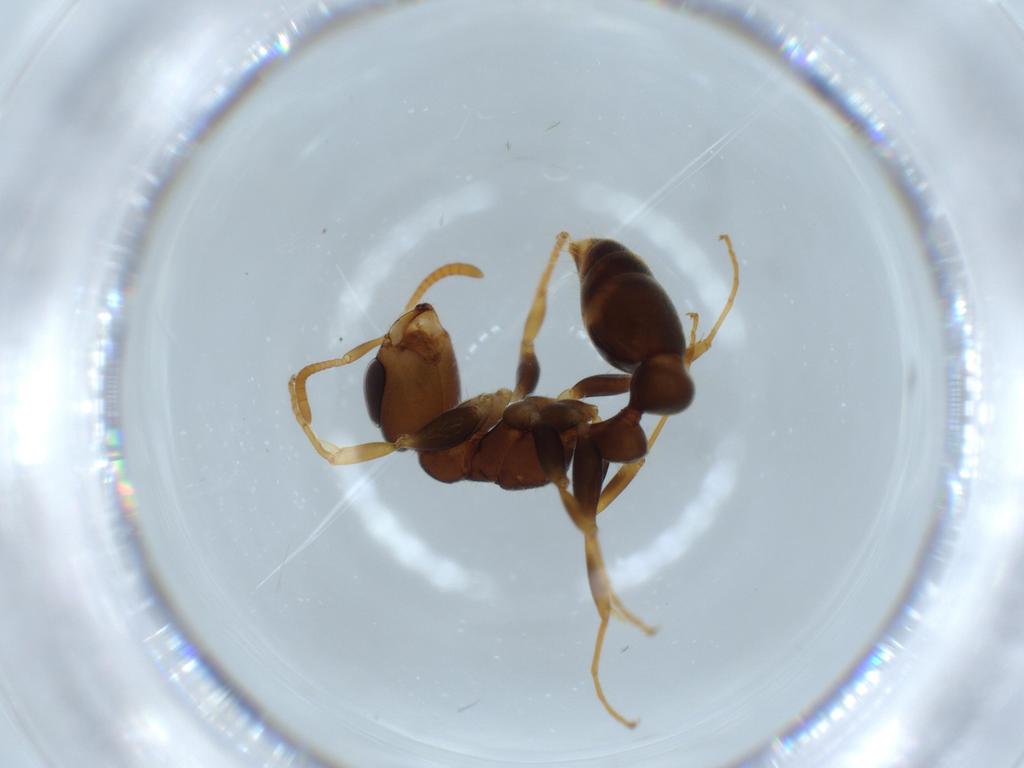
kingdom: Animalia
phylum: Arthropoda
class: Insecta
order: Hymenoptera
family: Formicidae
